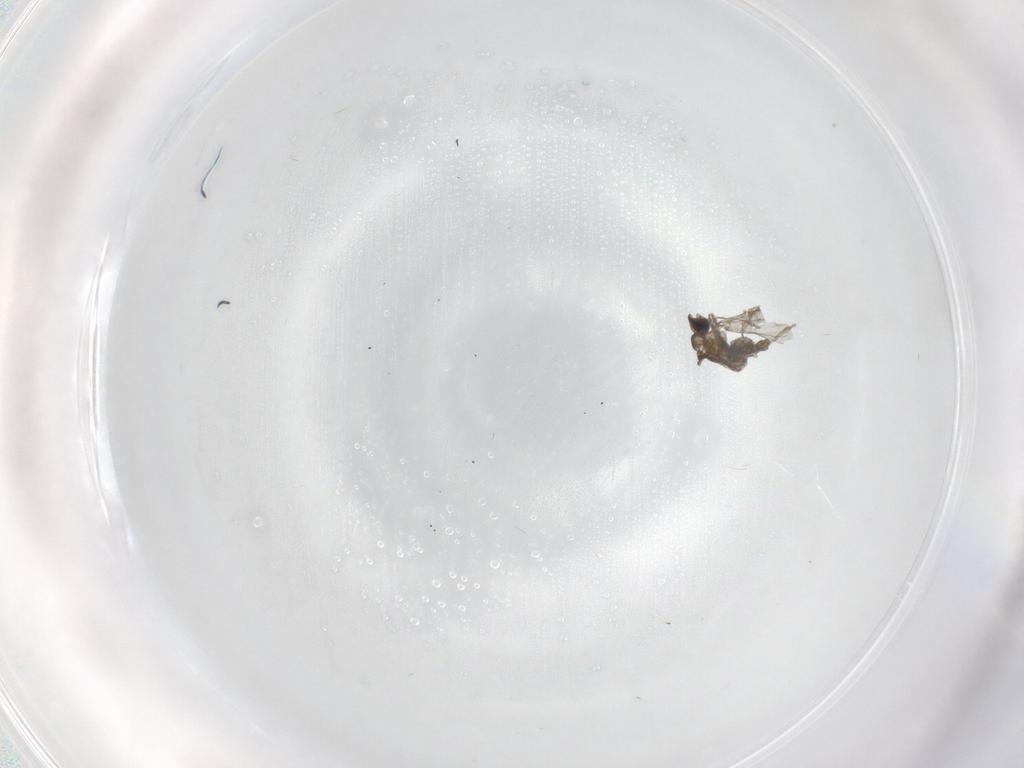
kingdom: Animalia
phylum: Arthropoda
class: Insecta
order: Diptera
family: Cecidomyiidae
